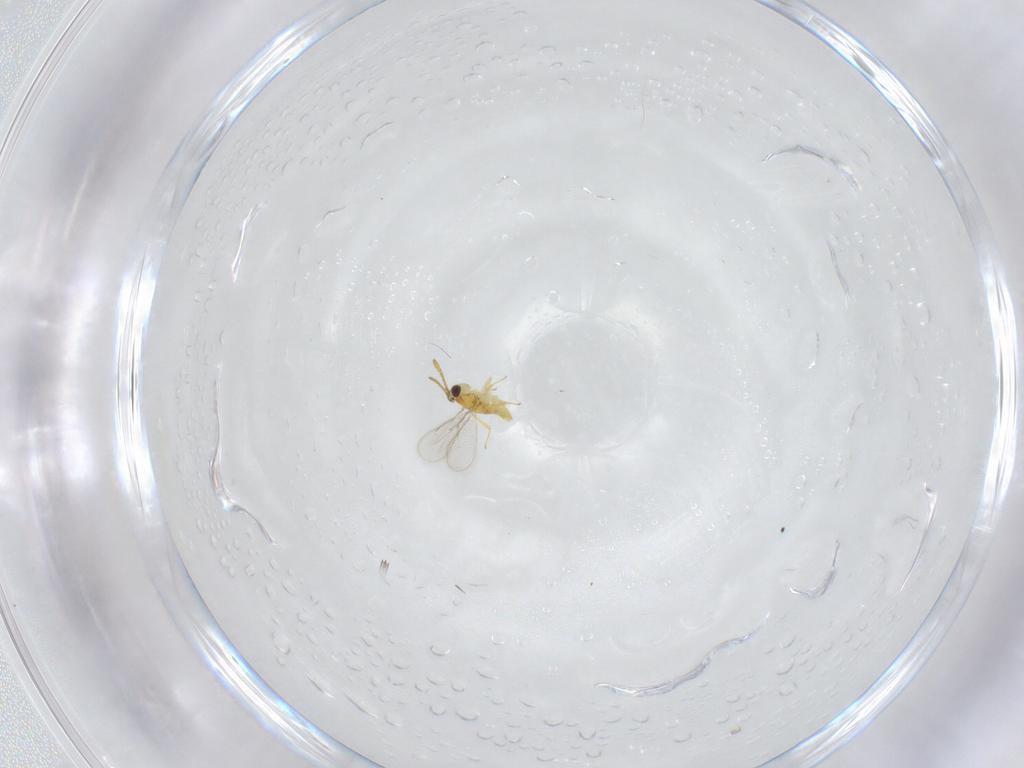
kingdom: Animalia
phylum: Arthropoda
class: Insecta
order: Hymenoptera
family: Aphelinidae
